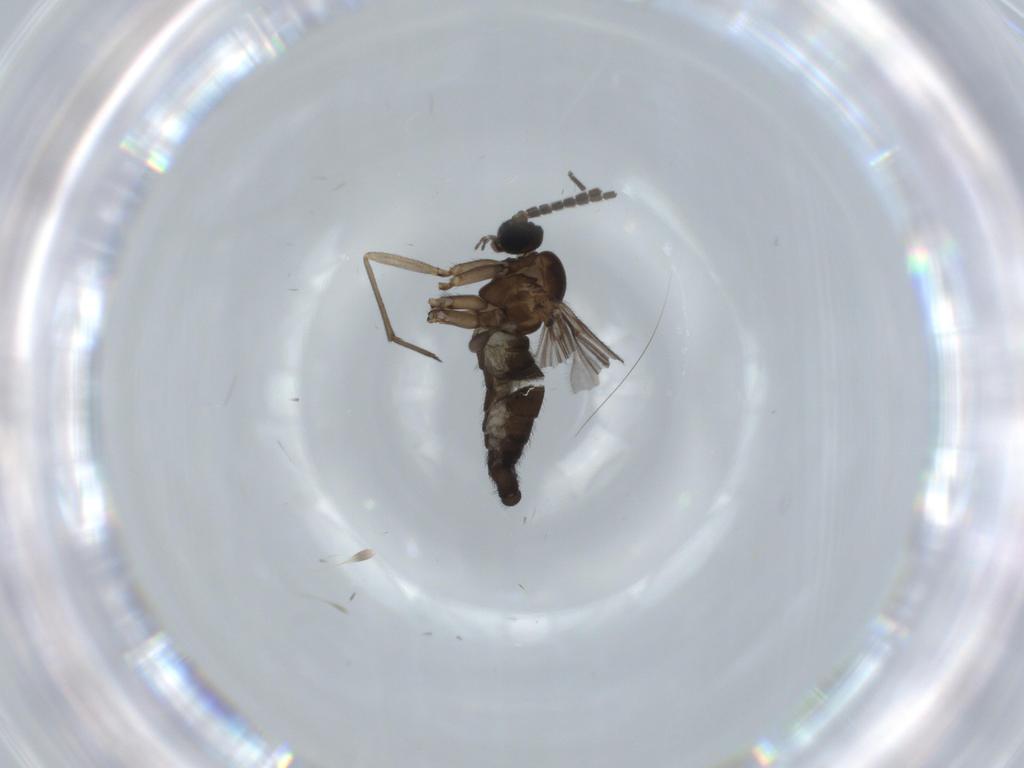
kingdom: Animalia
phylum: Arthropoda
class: Insecta
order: Diptera
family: Sciaridae
